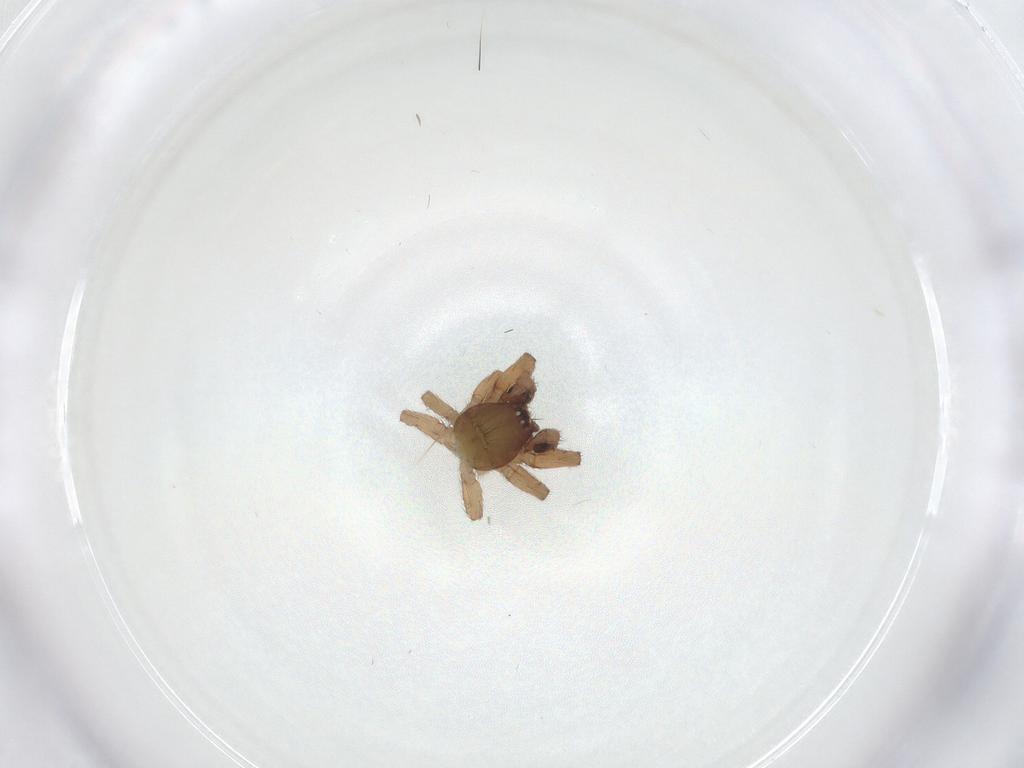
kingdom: Animalia
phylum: Arthropoda
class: Arachnida
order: Araneae
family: Anyphaenidae
